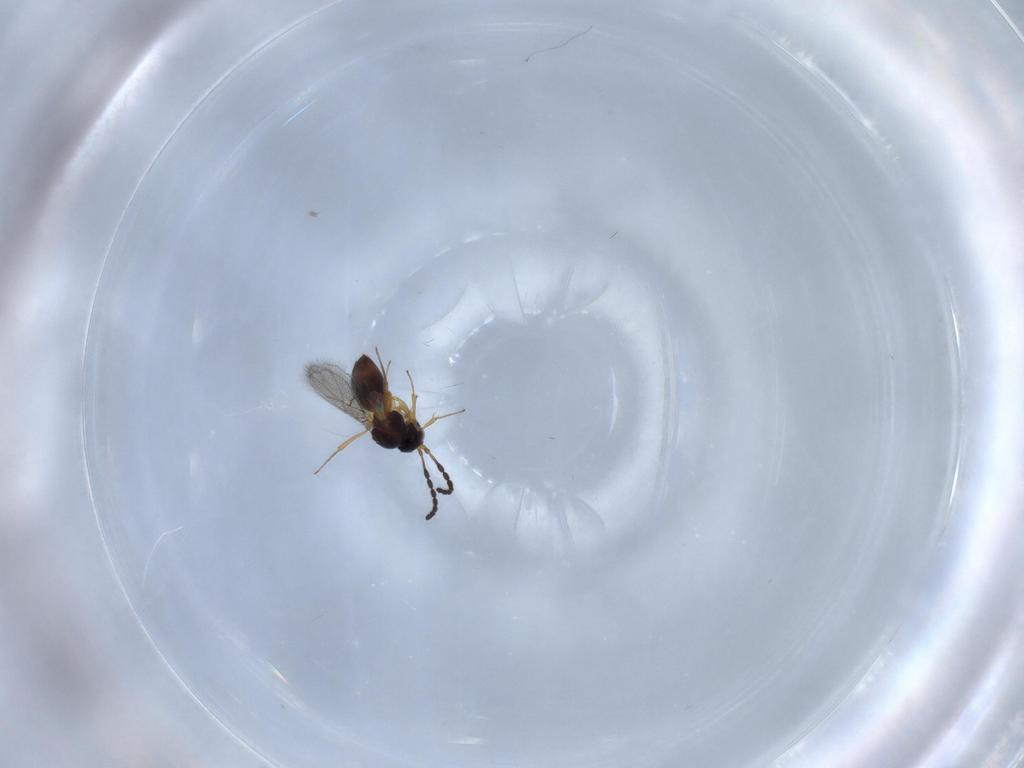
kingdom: Animalia
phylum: Arthropoda
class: Insecta
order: Hymenoptera
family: Figitidae
